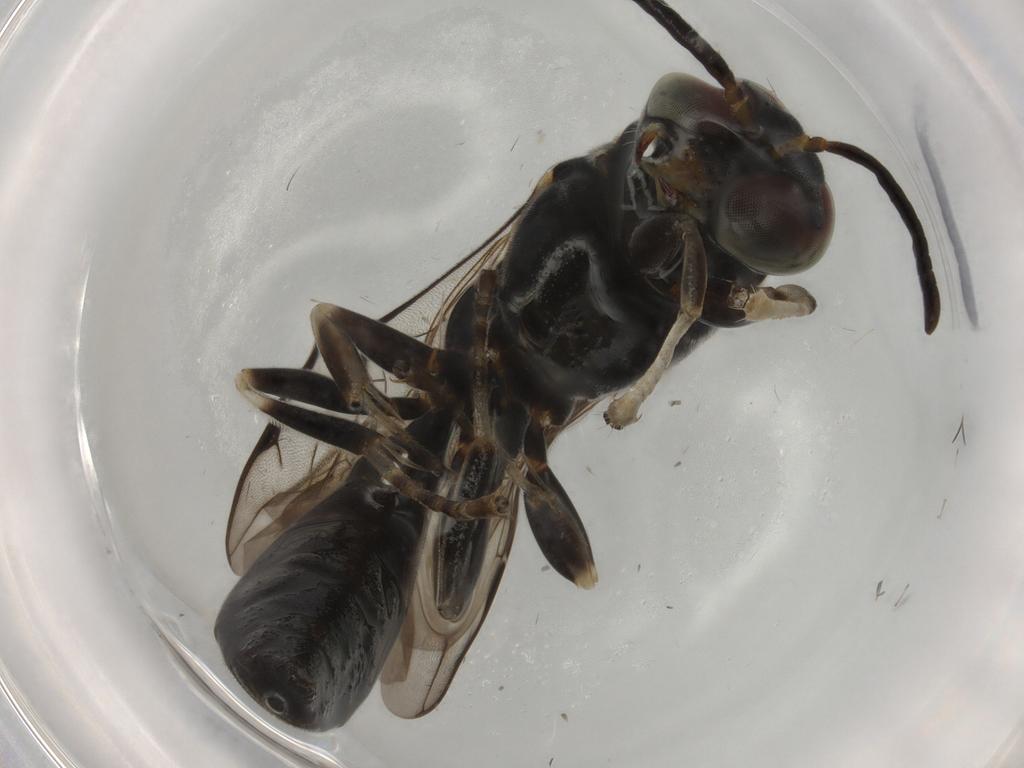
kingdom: Animalia
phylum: Arthropoda
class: Insecta
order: Hymenoptera
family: Crabronidae
